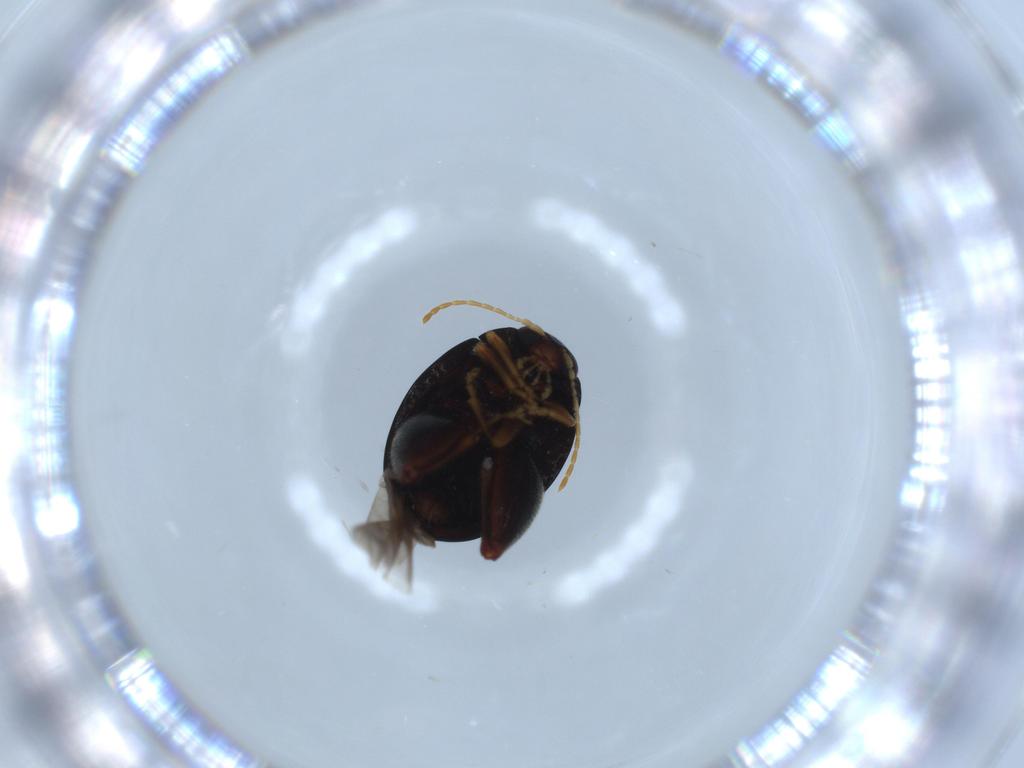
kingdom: Animalia
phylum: Arthropoda
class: Insecta
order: Coleoptera
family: Chrysomelidae
